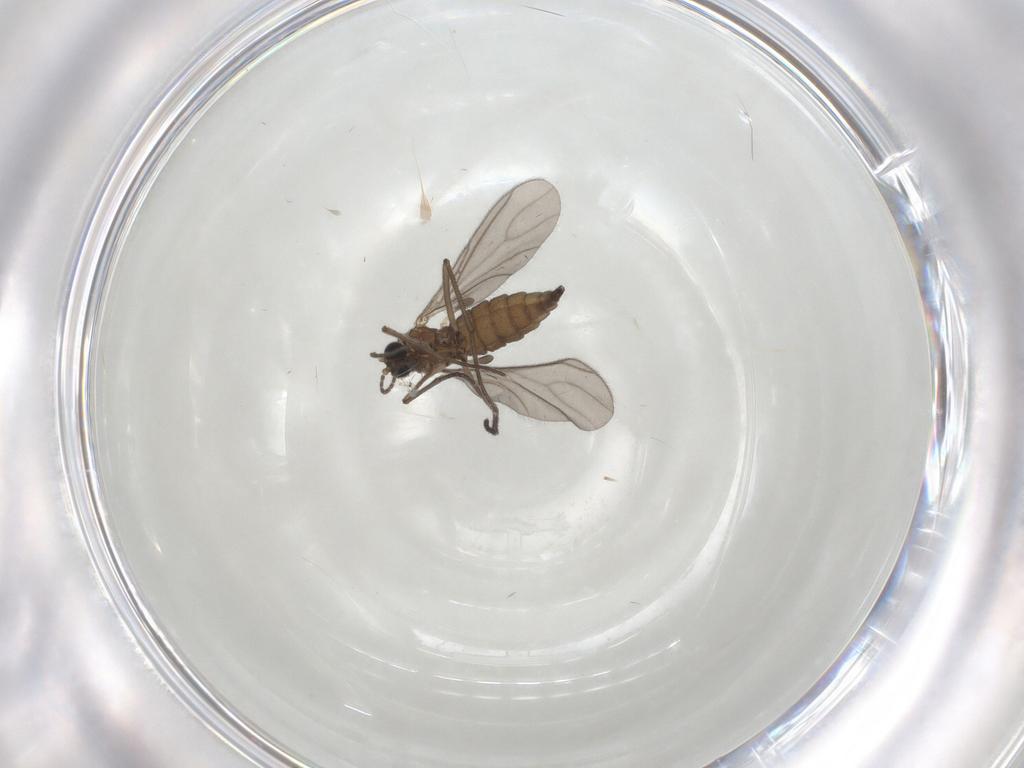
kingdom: Animalia
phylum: Arthropoda
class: Insecta
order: Diptera
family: Sciaridae
